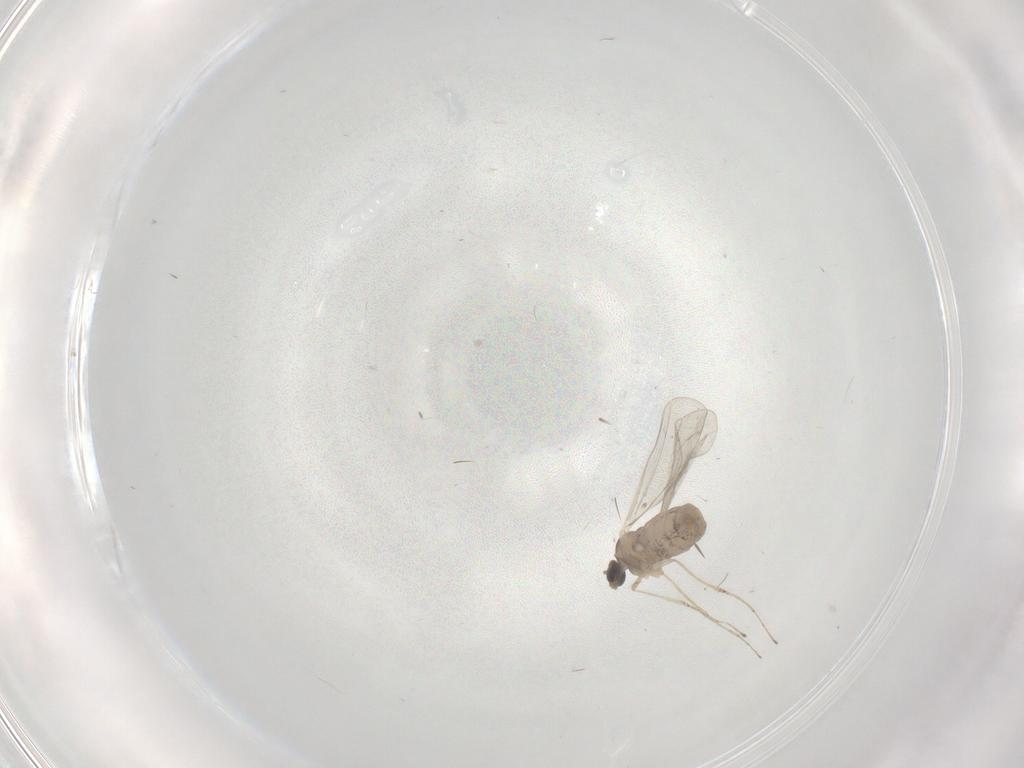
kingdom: Animalia
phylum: Arthropoda
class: Insecta
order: Diptera
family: Cecidomyiidae
